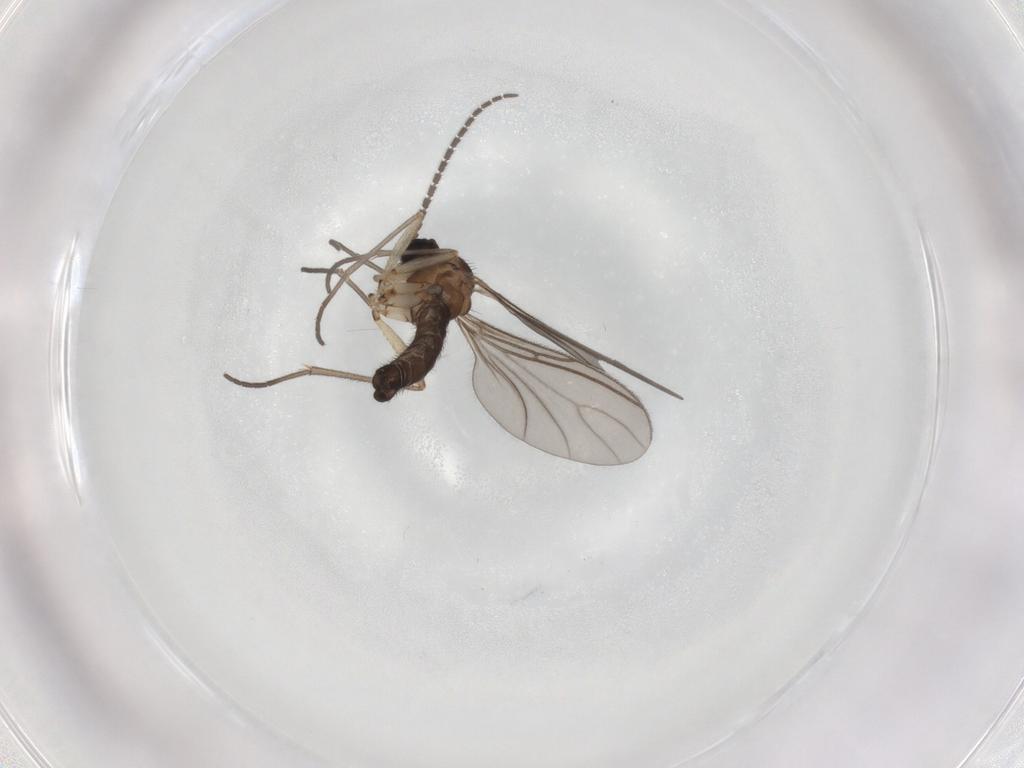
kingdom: Animalia
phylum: Arthropoda
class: Insecta
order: Diptera
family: Sciaridae
